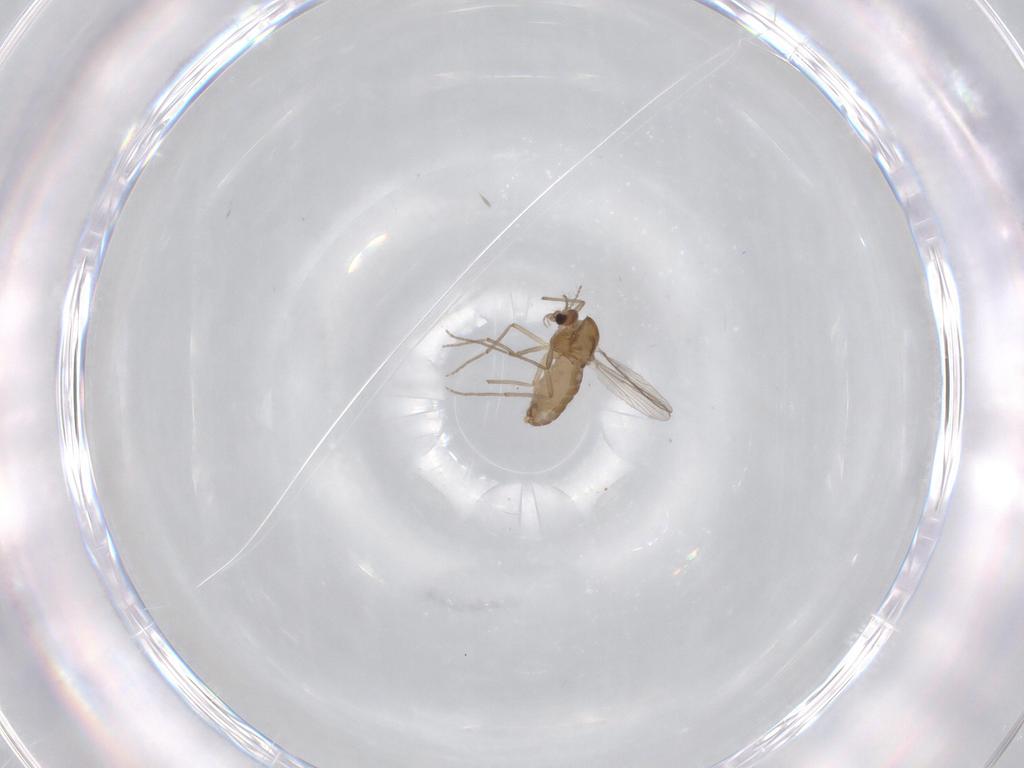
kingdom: Animalia
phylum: Arthropoda
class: Insecta
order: Diptera
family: Chironomidae
